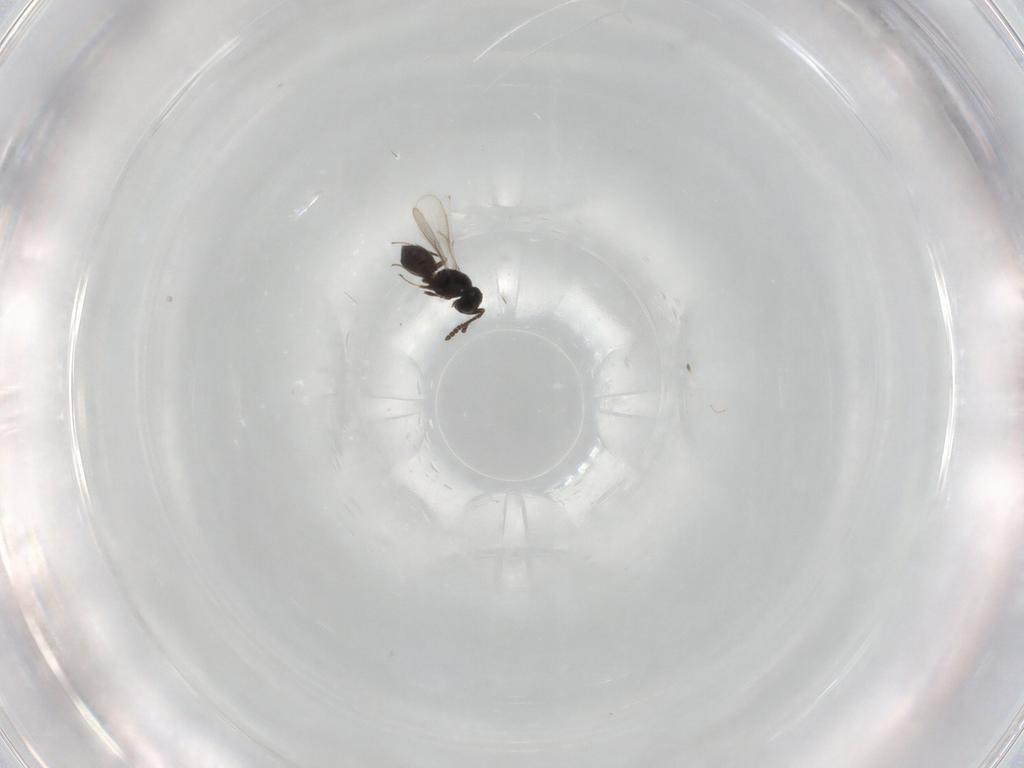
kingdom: Animalia
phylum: Arthropoda
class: Insecta
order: Hymenoptera
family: Scelionidae
